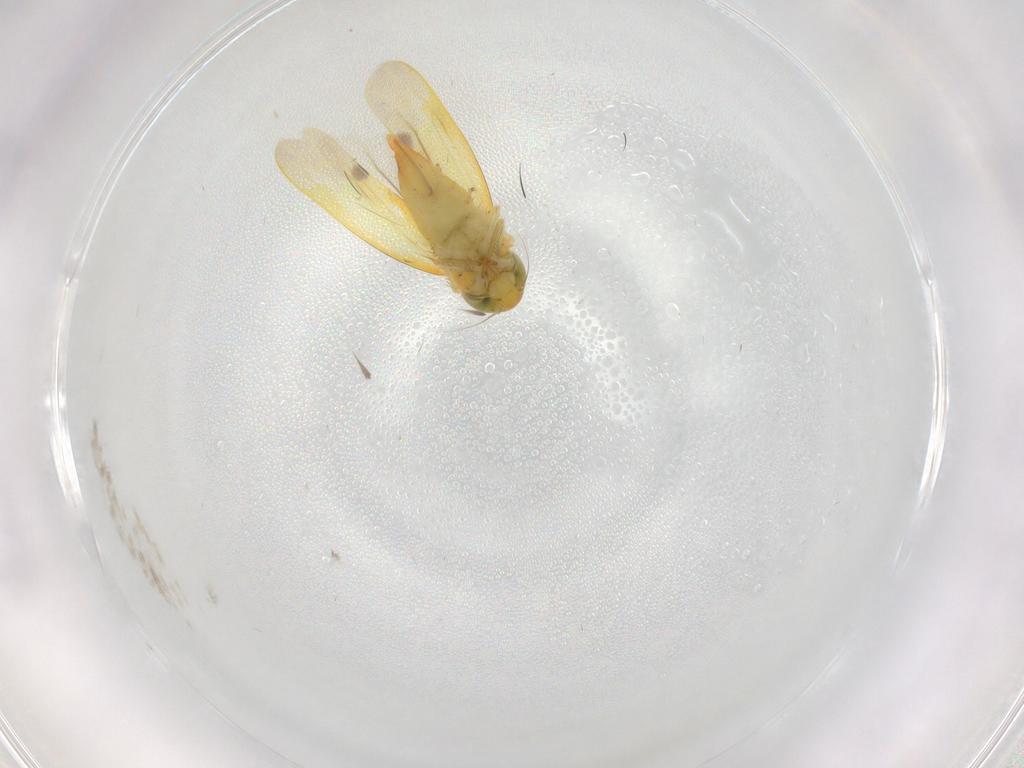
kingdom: Animalia
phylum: Arthropoda
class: Insecta
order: Hemiptera
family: Cicadellidae
